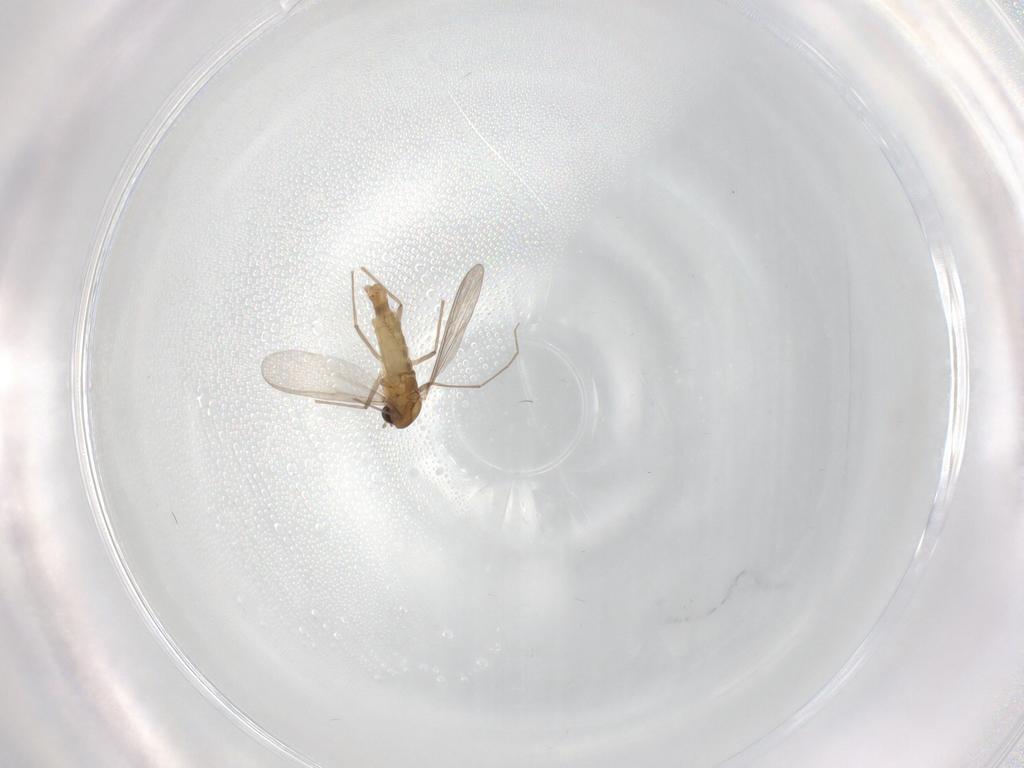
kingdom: Animalia
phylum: Arthropoda
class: Insecta
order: Diptera
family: Chironomidae
